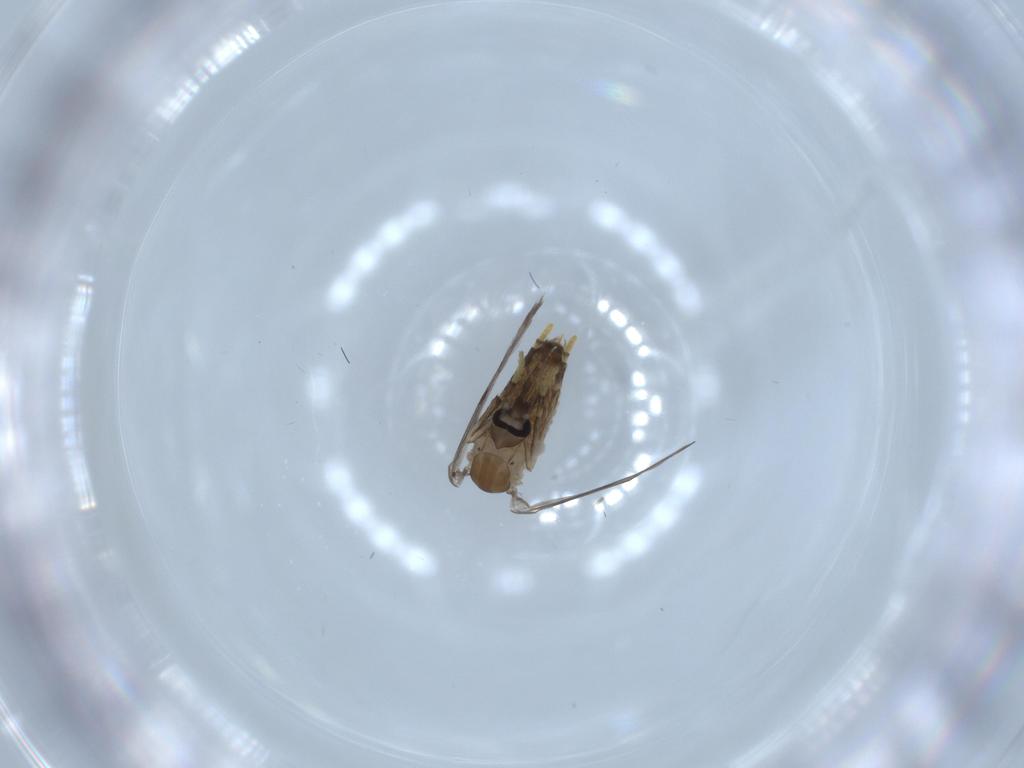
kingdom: Animalia
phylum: Arthropoda
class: Insecta
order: Diptera
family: Psychodidae
